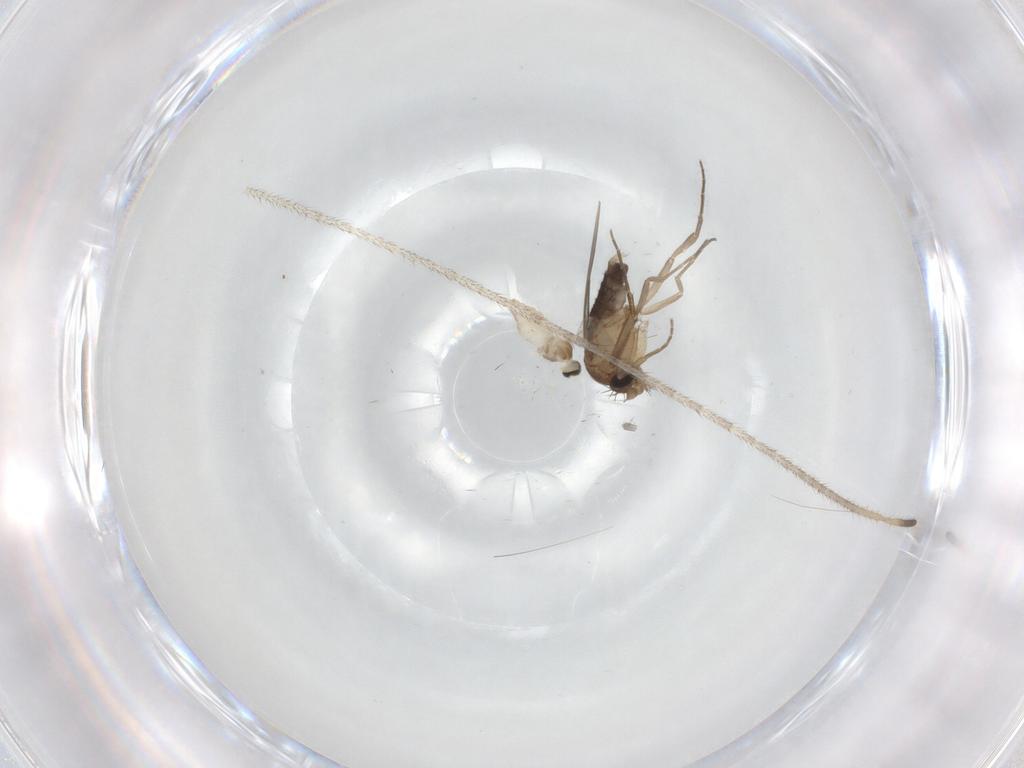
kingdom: Animalia
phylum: Arthropoda
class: Insecta
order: Diptera
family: Phoridae
